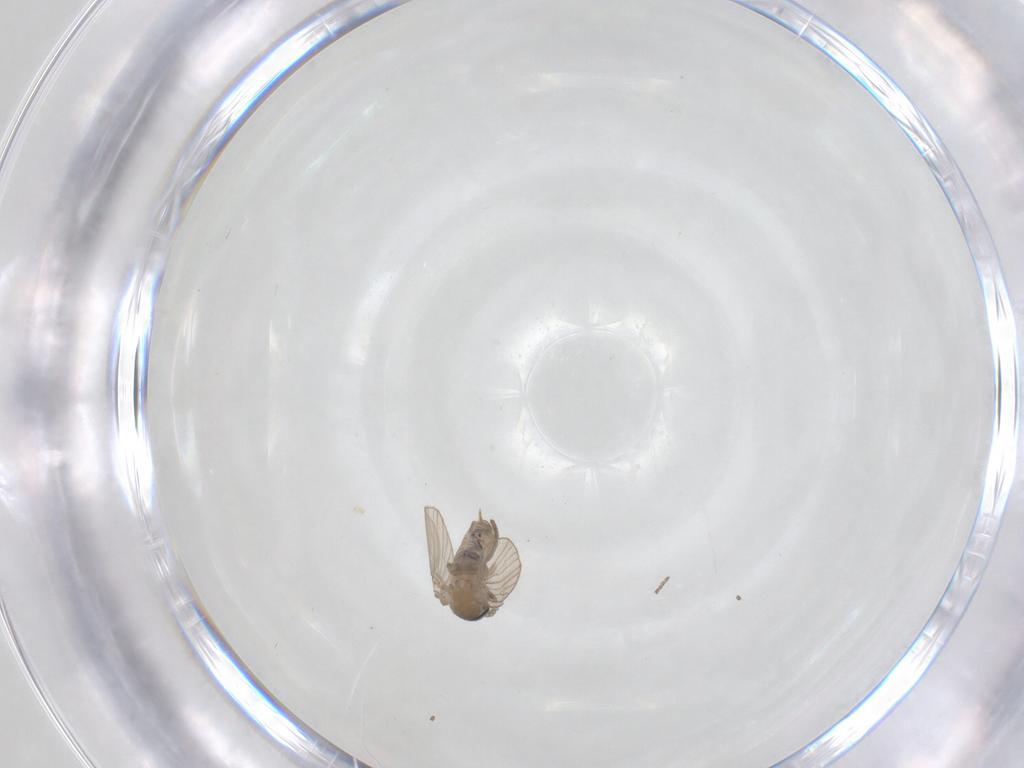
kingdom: Animalia
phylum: Arthropoda
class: Insecta
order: Diptera
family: Psychodidae
